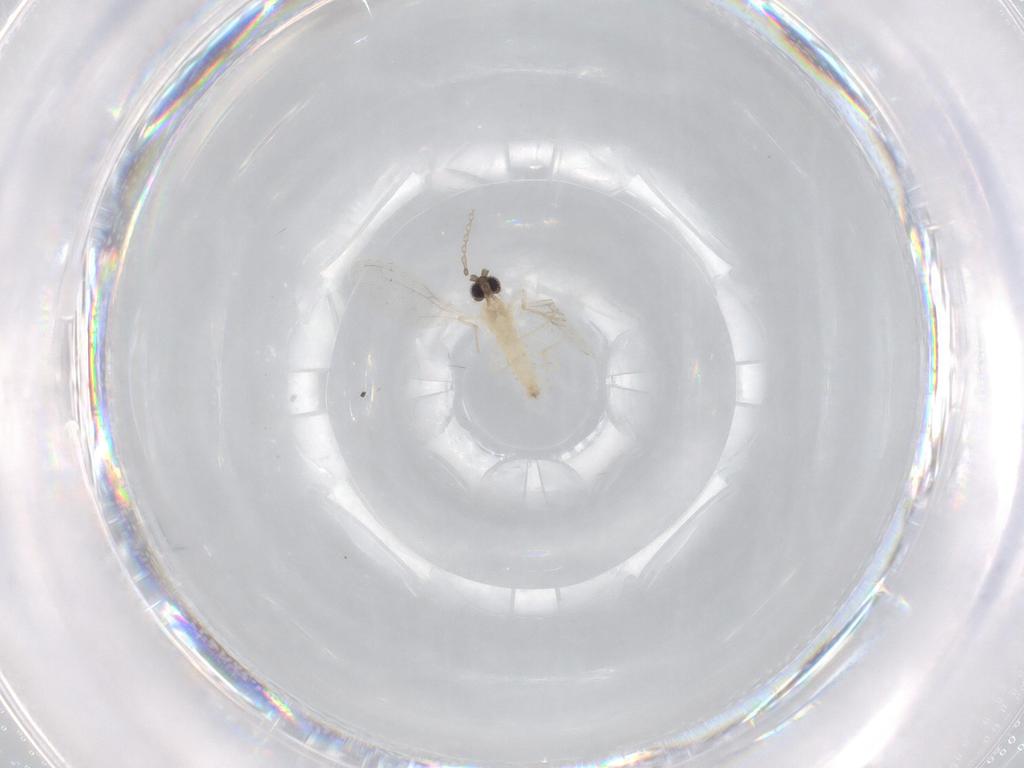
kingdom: Animalia
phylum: Arthropoda
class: Insecta
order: Diptera
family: Cecidomyiidae
